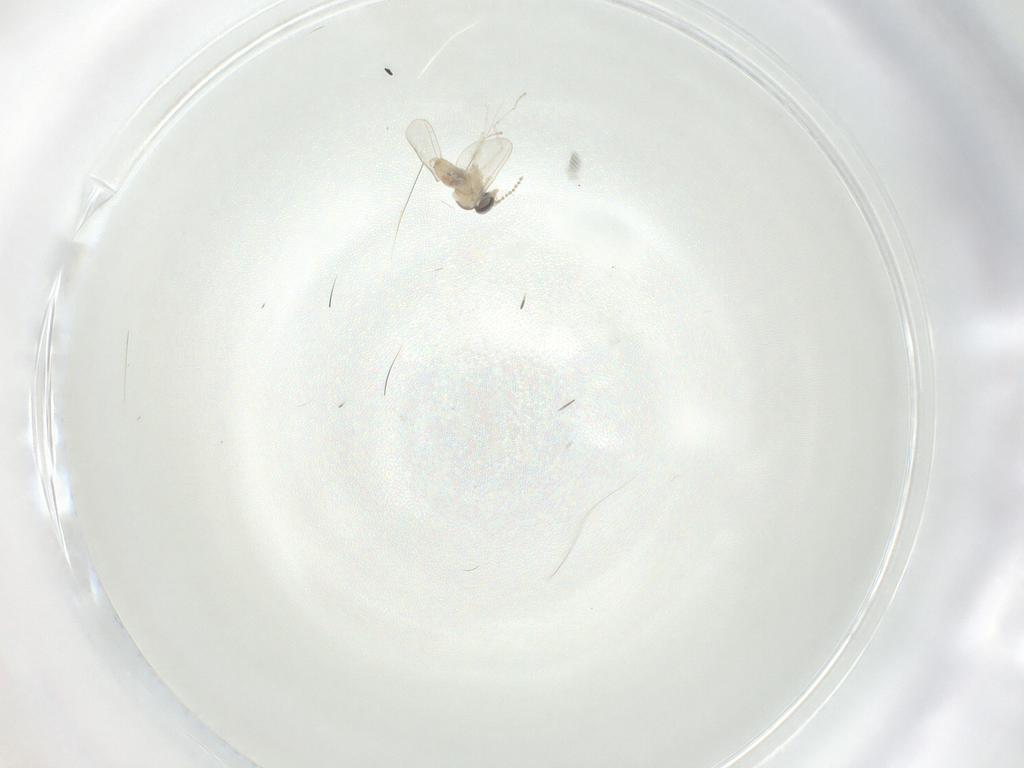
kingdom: Animalia
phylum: Arthropoda
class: Insecta
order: Diptera
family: Cecidomyiidae
